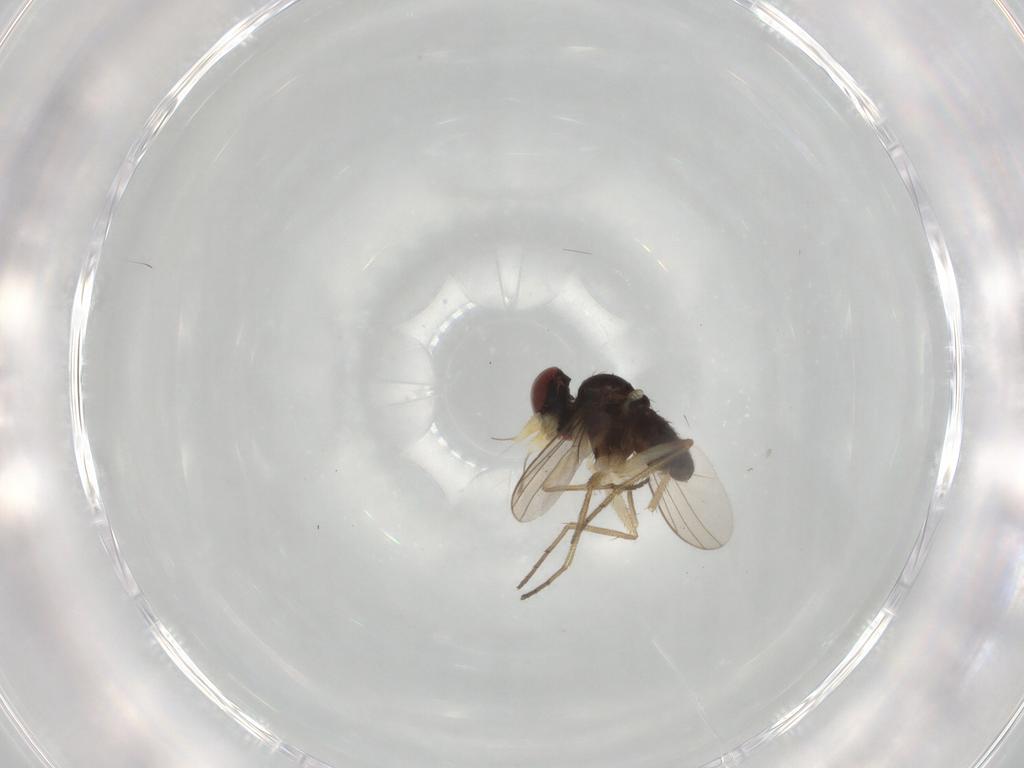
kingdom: Animalia
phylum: Arthropoda
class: Insecta
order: Diptera
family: Dolichopodidae
